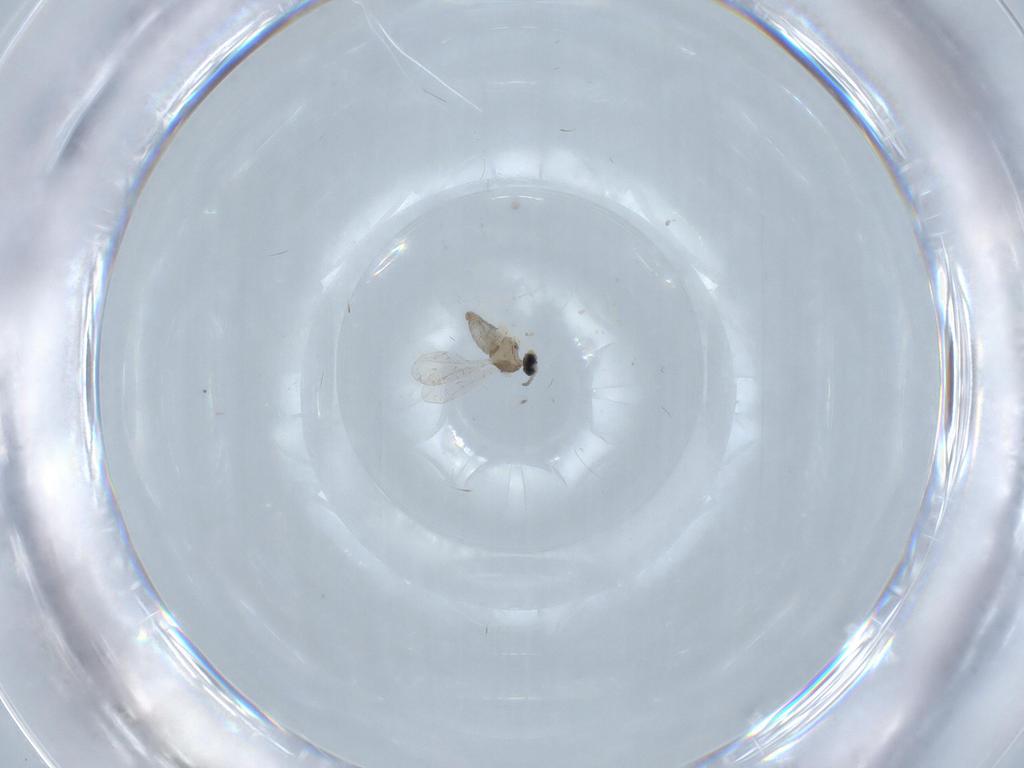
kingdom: Animalia
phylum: Arthropoda
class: Insecta
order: Diptera
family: Cecidomyiidae
